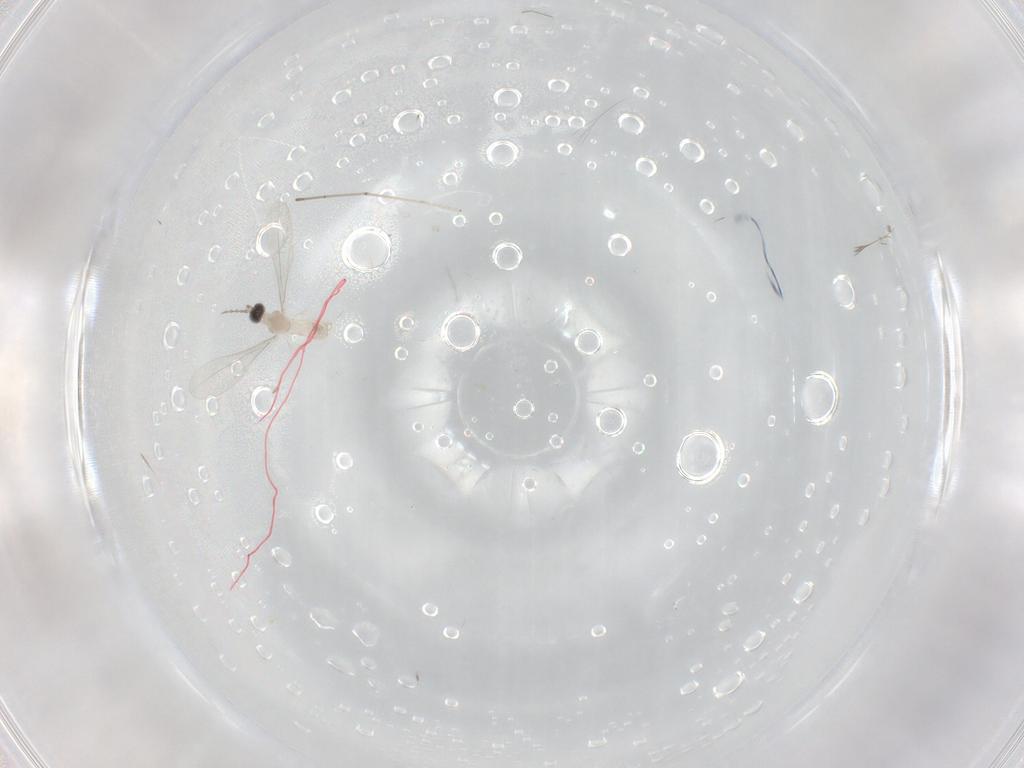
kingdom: Animalia
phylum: Arthropoda
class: Insecta
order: Diptera
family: Cecidomyiidae
